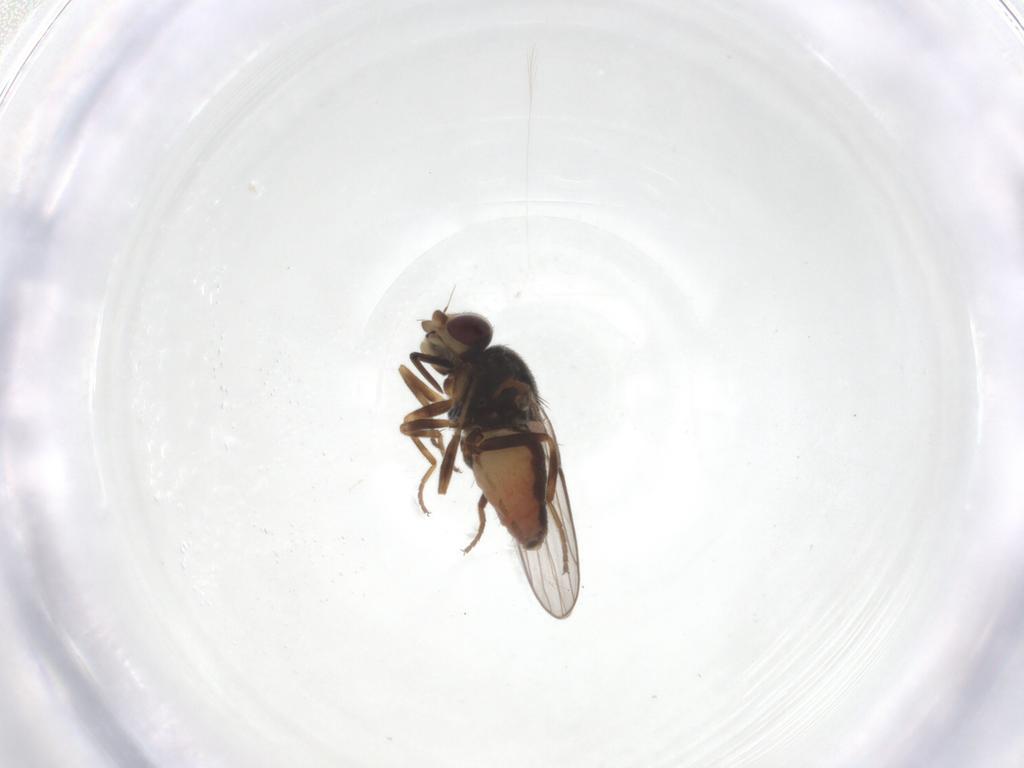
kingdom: Animalia
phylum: Arthropoda
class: Insecta
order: Diptera
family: Chloropidae
